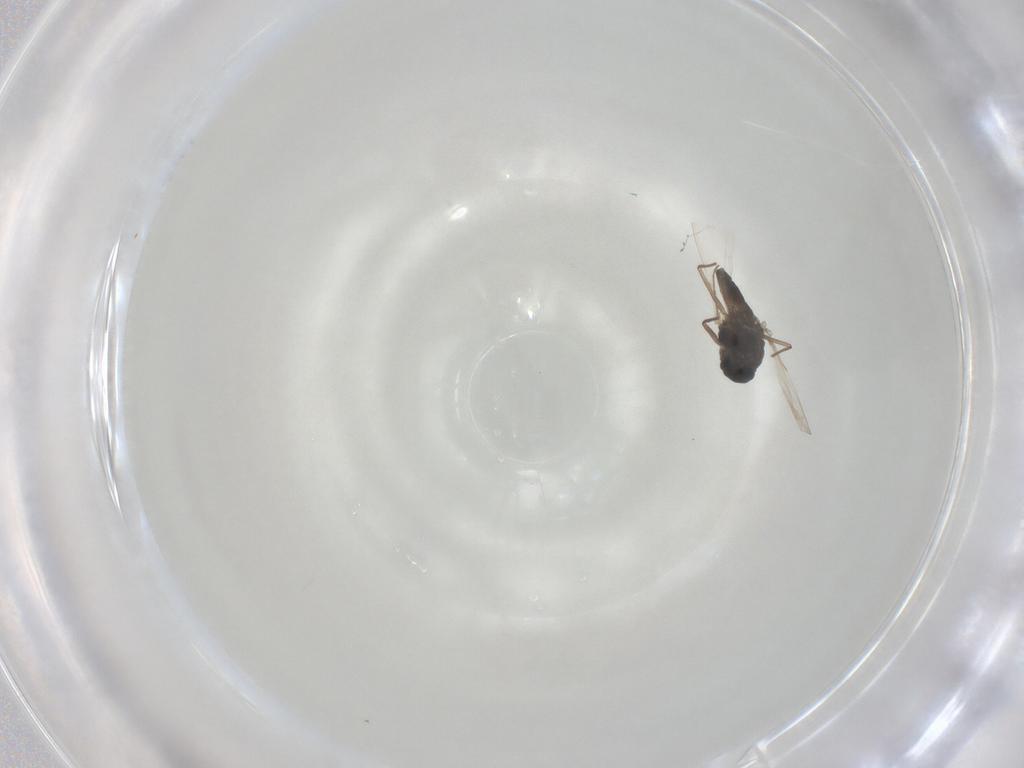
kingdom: Animalia
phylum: Arthropoda
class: Insecta
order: Diptera
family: Chironomidae
